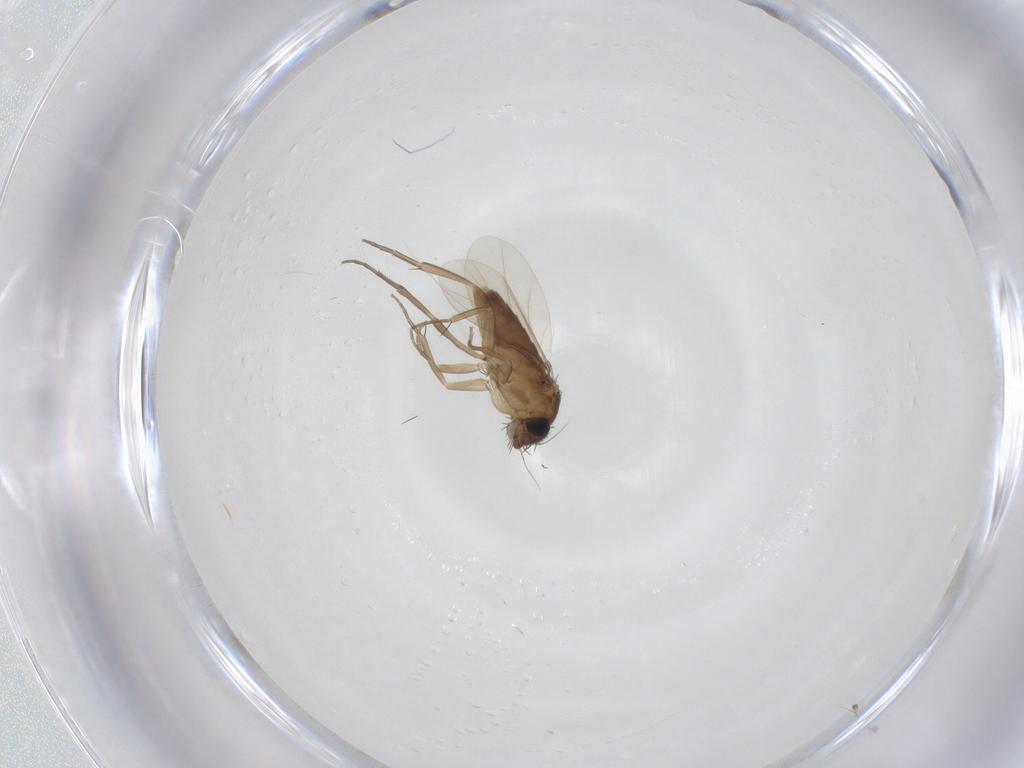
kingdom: Animalia
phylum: Arthropoda
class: Insecta
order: Diptera
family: Phoridae
